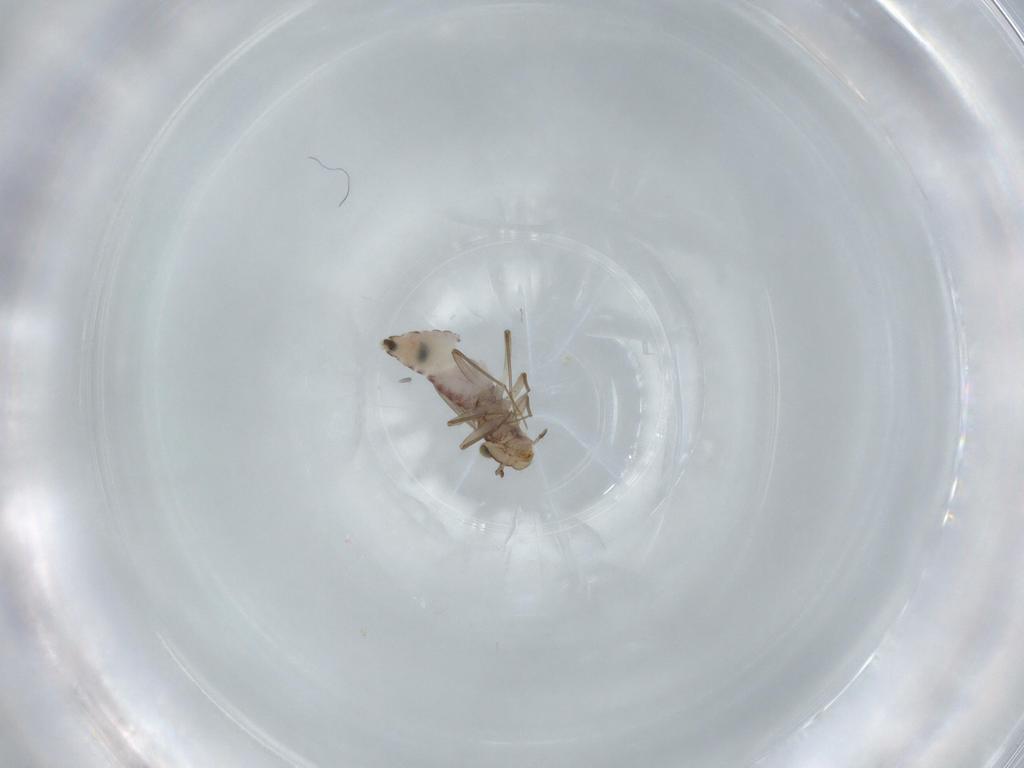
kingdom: Animalia
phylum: Arthropoda
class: Insecta
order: Psocodea
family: Lepidopsocidae
